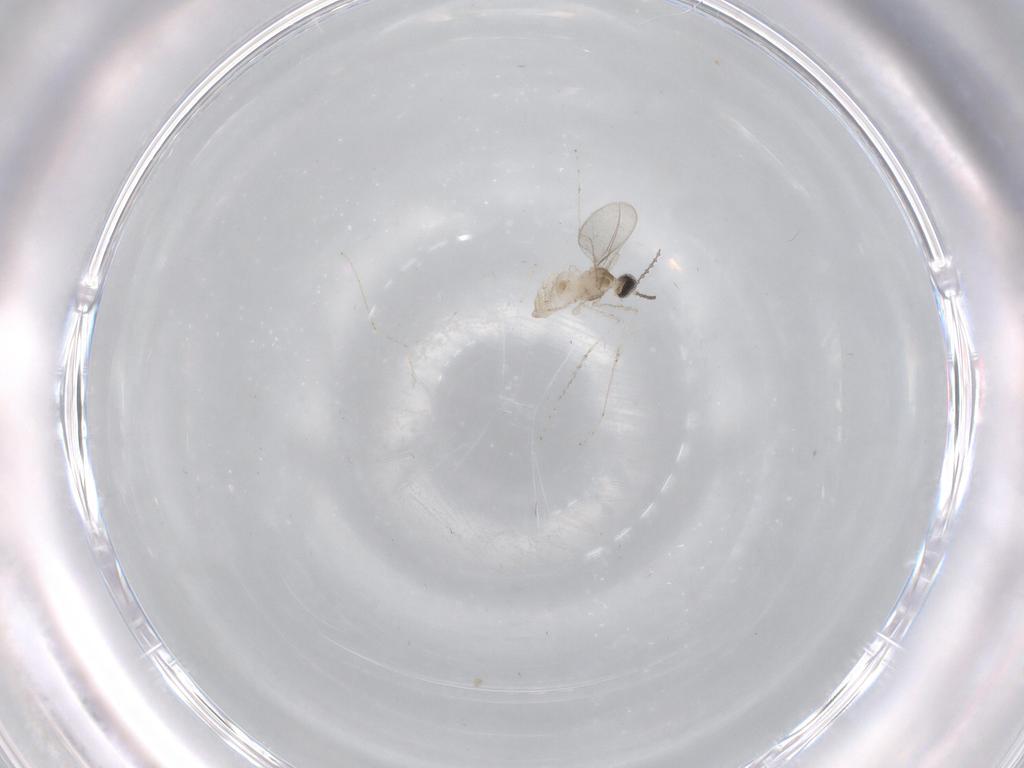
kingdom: Animalia
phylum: Arthropoda
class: Insecta
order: Diptera
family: Cecidomyiidae
